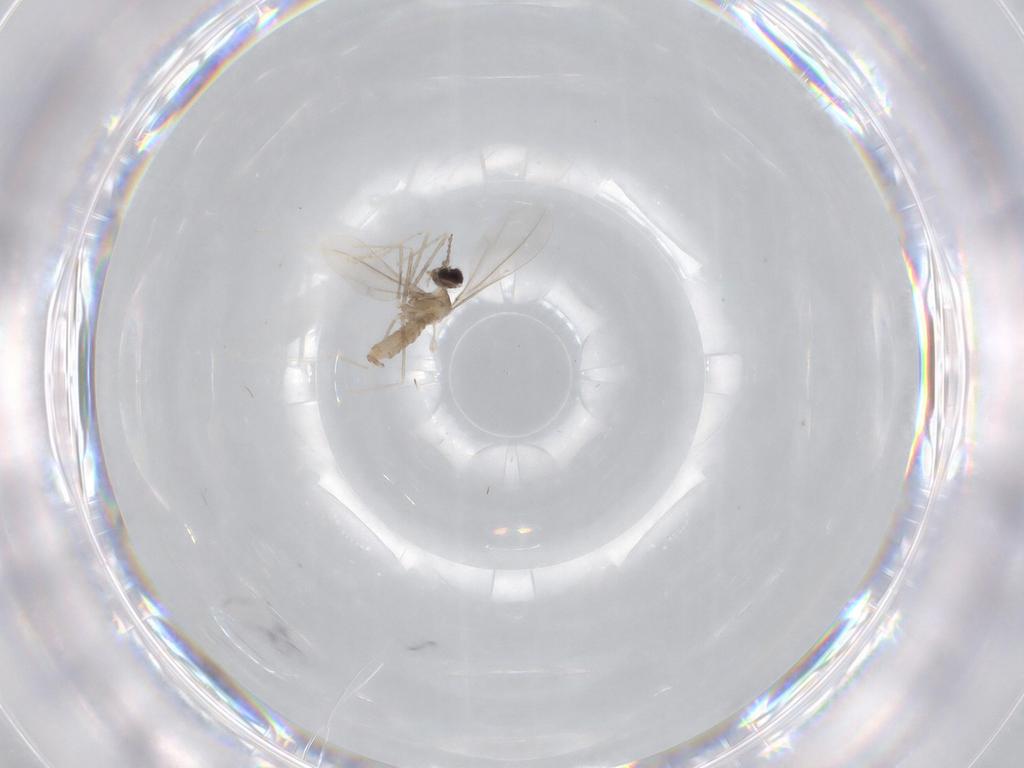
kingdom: Animalia
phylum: Arthropoda
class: Insecta
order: Diptera
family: Cecidomyiidae
